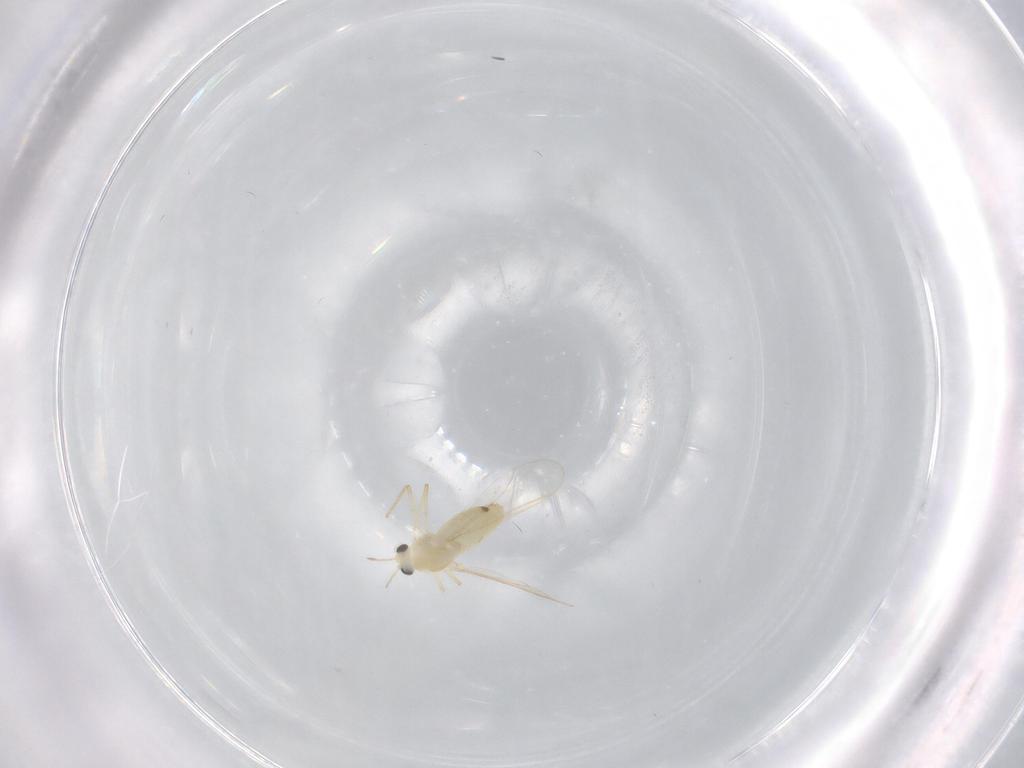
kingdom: Animalia
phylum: Arthropoda
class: Insecta
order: Diptera
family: Chironomidae
